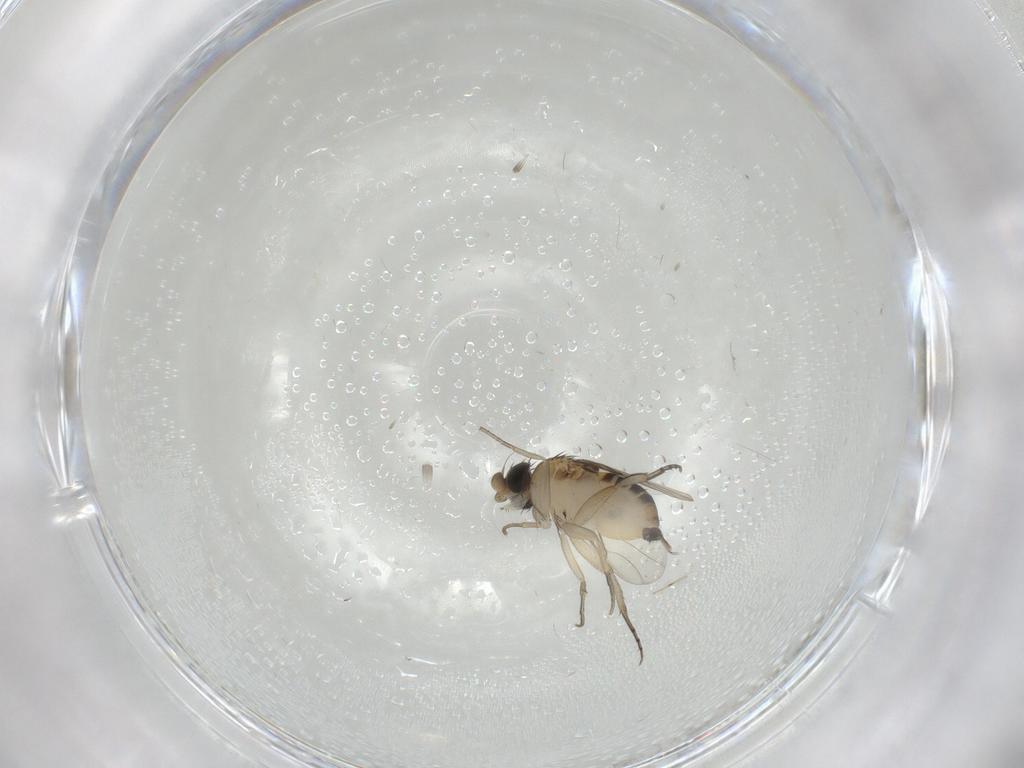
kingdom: Animalia
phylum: Arthropoda
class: Insecta
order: Diptera
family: Phoridae
